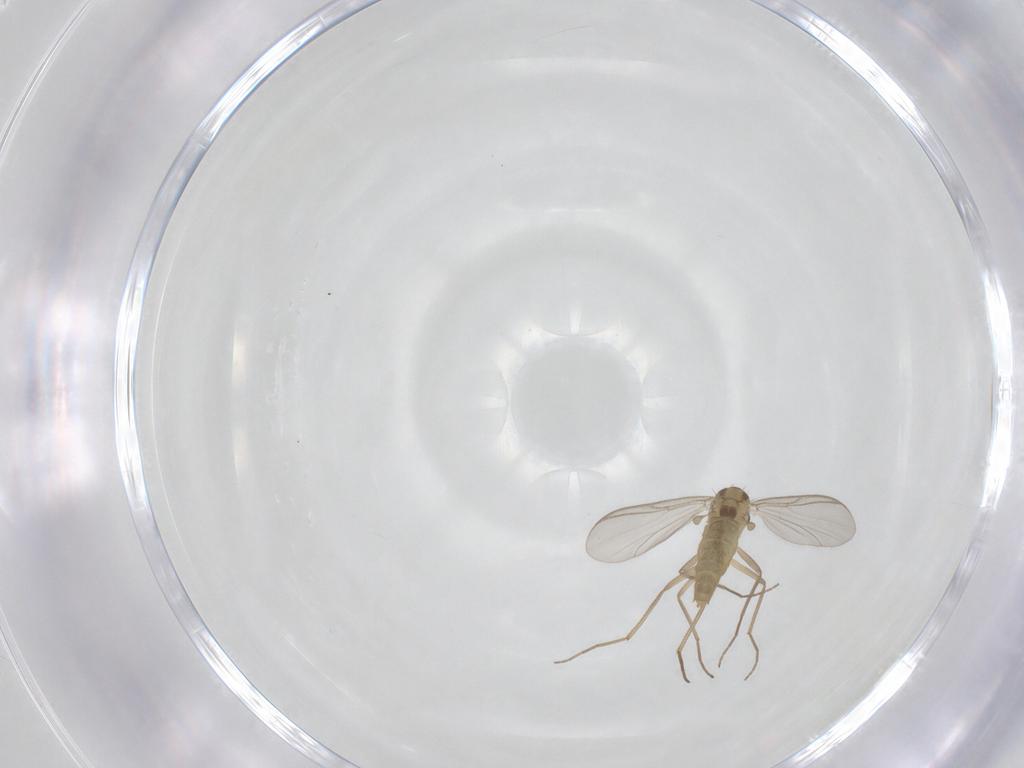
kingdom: Animalia
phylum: Arthropoda
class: Insecta
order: Diptera
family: Chironomidae
